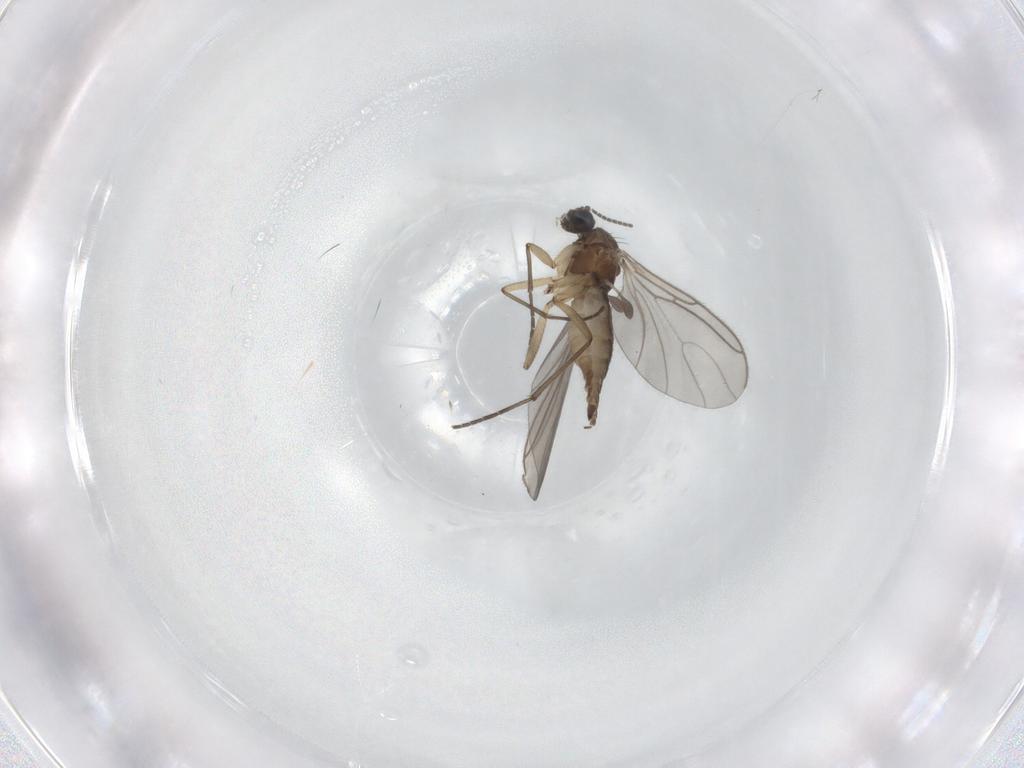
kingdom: Animalia
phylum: Arthropoda
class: Insecta
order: Diptera
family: Sciaridae
